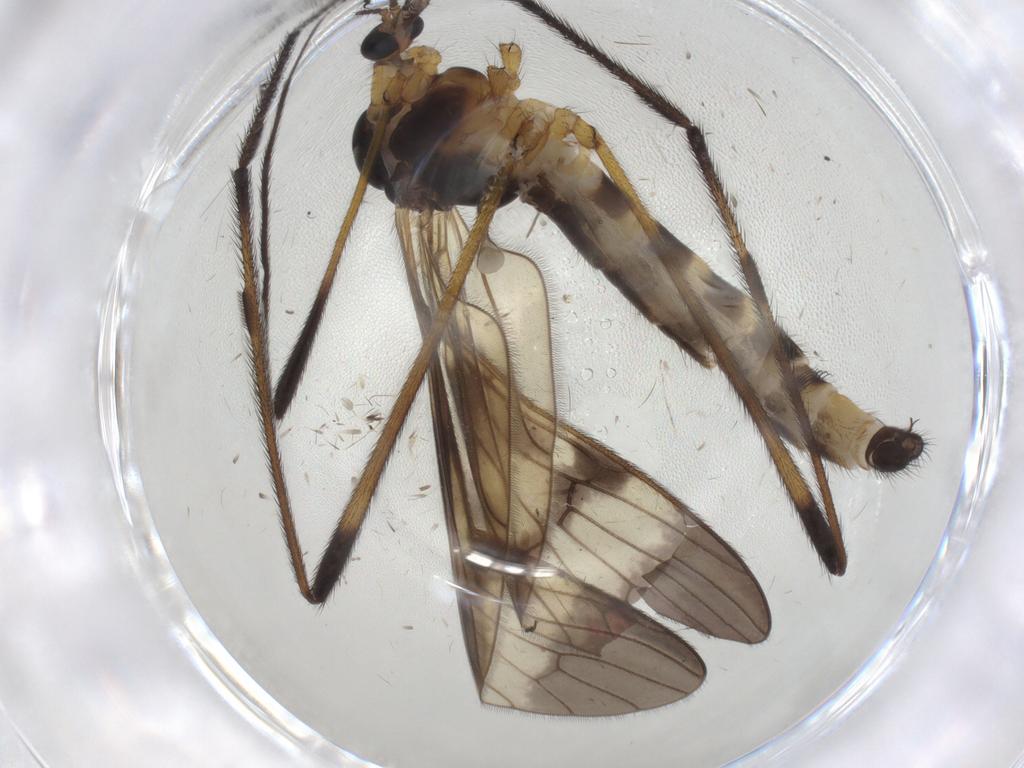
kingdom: Animalia
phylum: Arthropoda
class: Insecta
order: Diptera
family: Limoniidae
